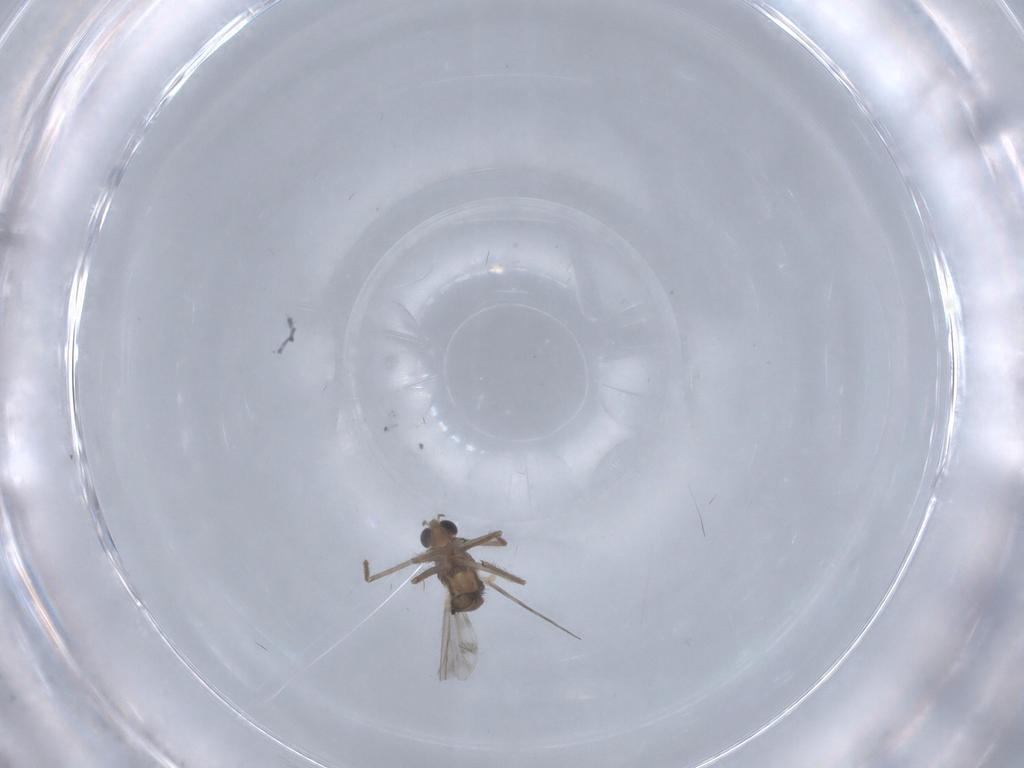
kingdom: Animalia
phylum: Arthropoda
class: Insecta
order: Diptera
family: Chironomidae
